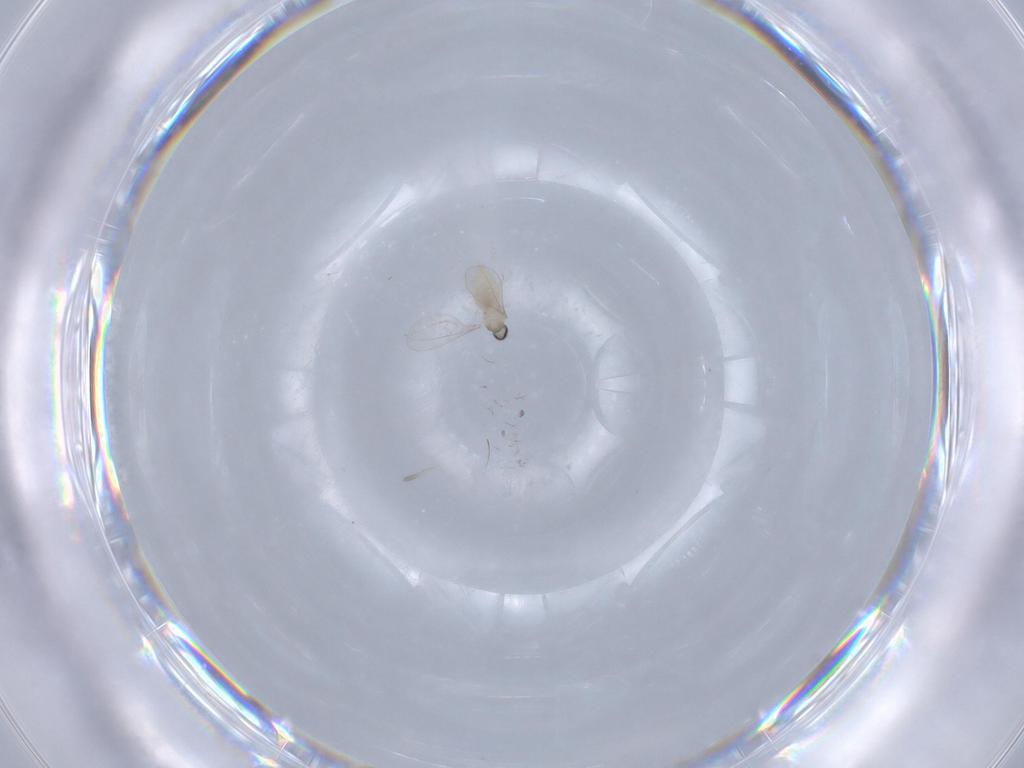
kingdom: Animalia
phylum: Arthropoda
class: Insecta
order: Diptera
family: Cecidomyiidae
